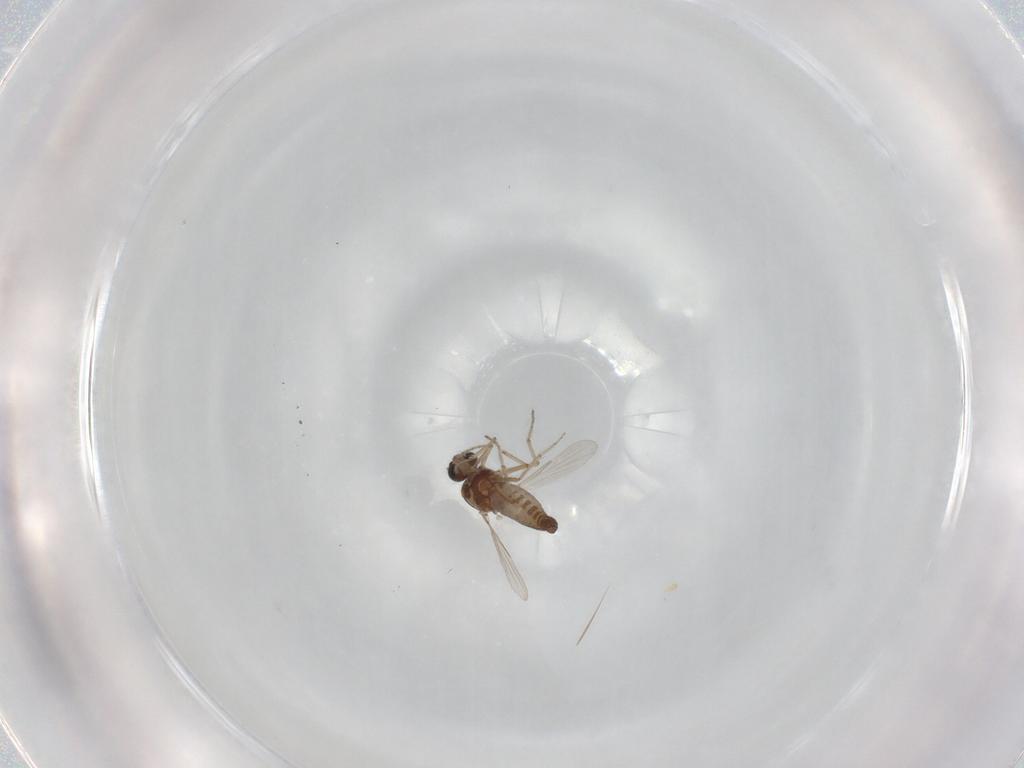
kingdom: Animalia
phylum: Arthropoda
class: Insecta
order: Diptera
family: Ceratopogonidae
